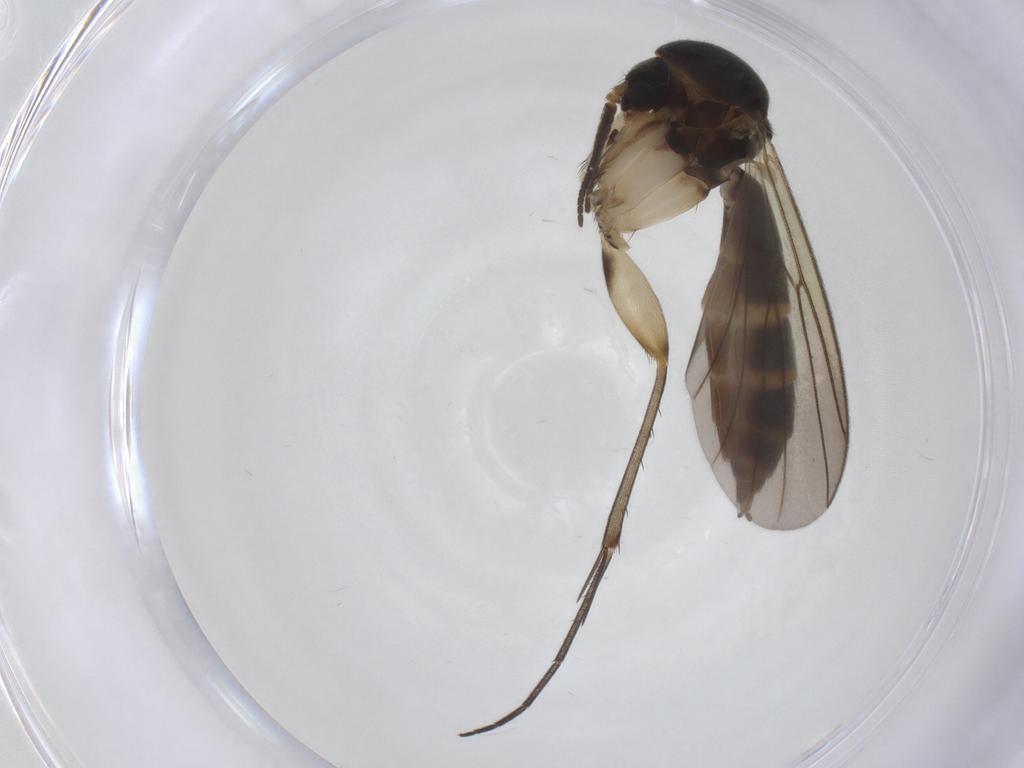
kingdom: Animalia
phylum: Arthropoda
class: Insecta
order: Diptera
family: Mycetophilidae
